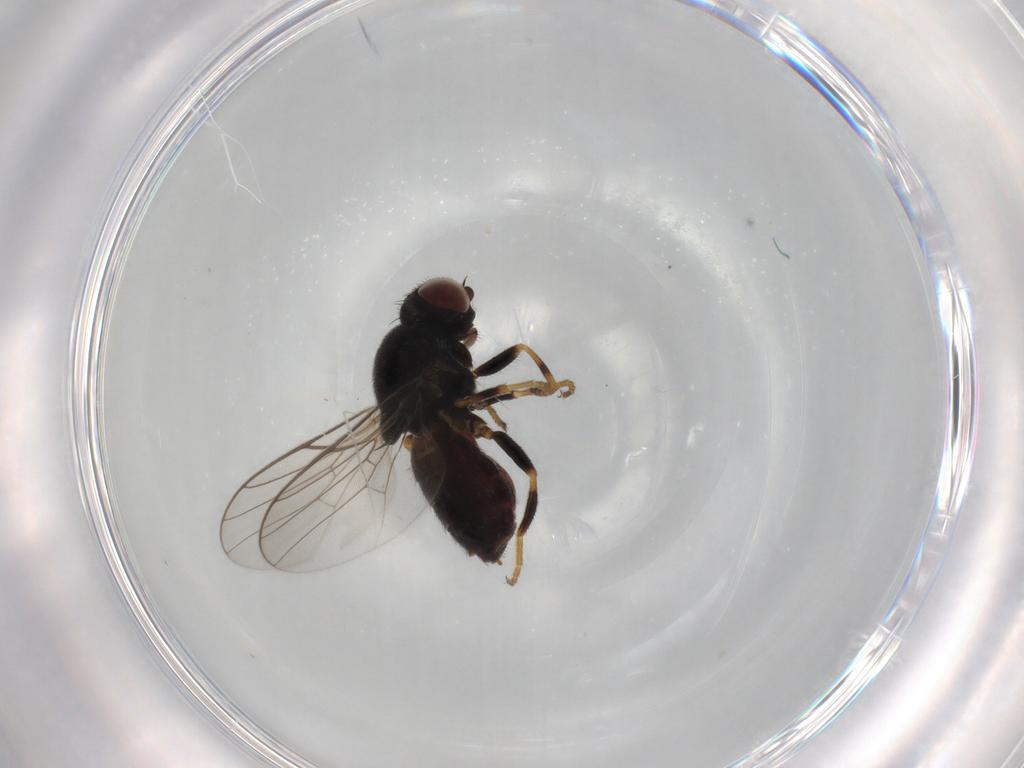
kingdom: Animalia
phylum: Arthropoda
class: Insecta
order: Diptera
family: Chloropidae
